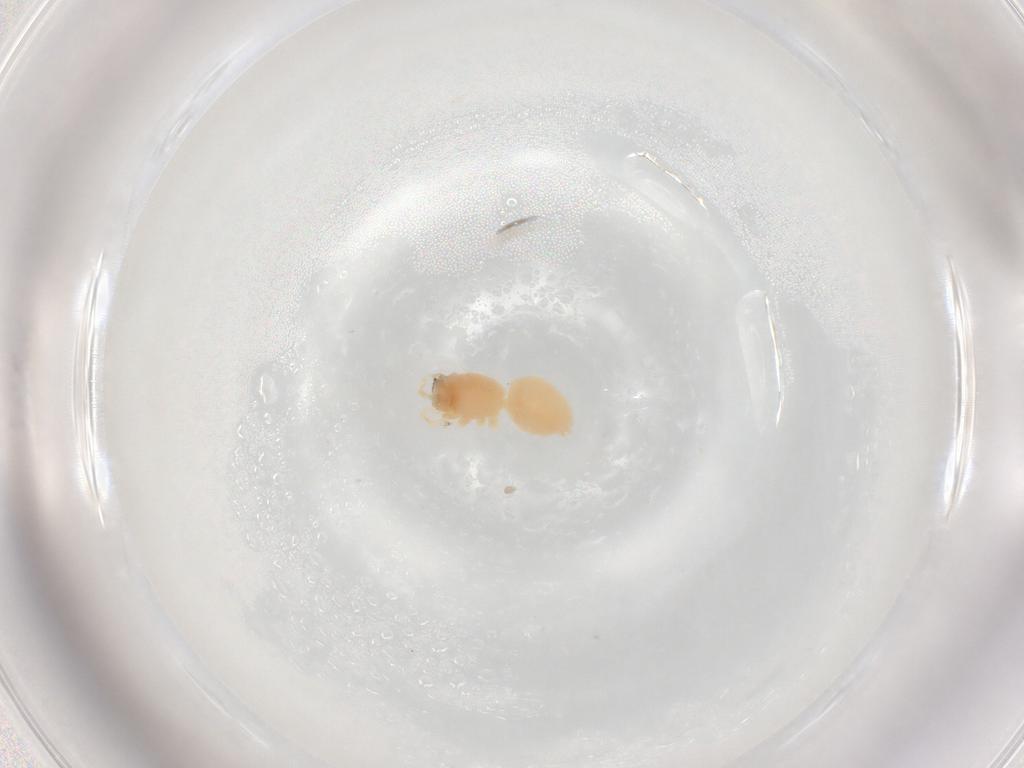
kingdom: Animalia
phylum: Arthropoda
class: Arachnida
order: Araneae
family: Anyphaenidae
